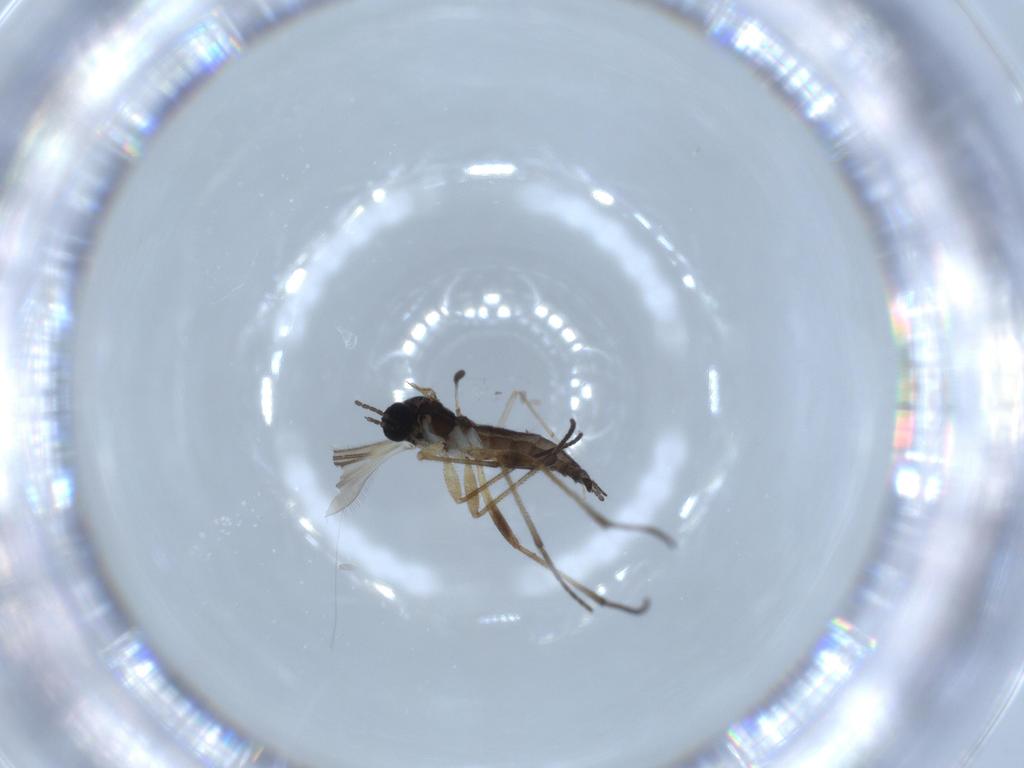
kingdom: Animalia
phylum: Arthropoda
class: Insecta
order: Diptera
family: Sciaridae
